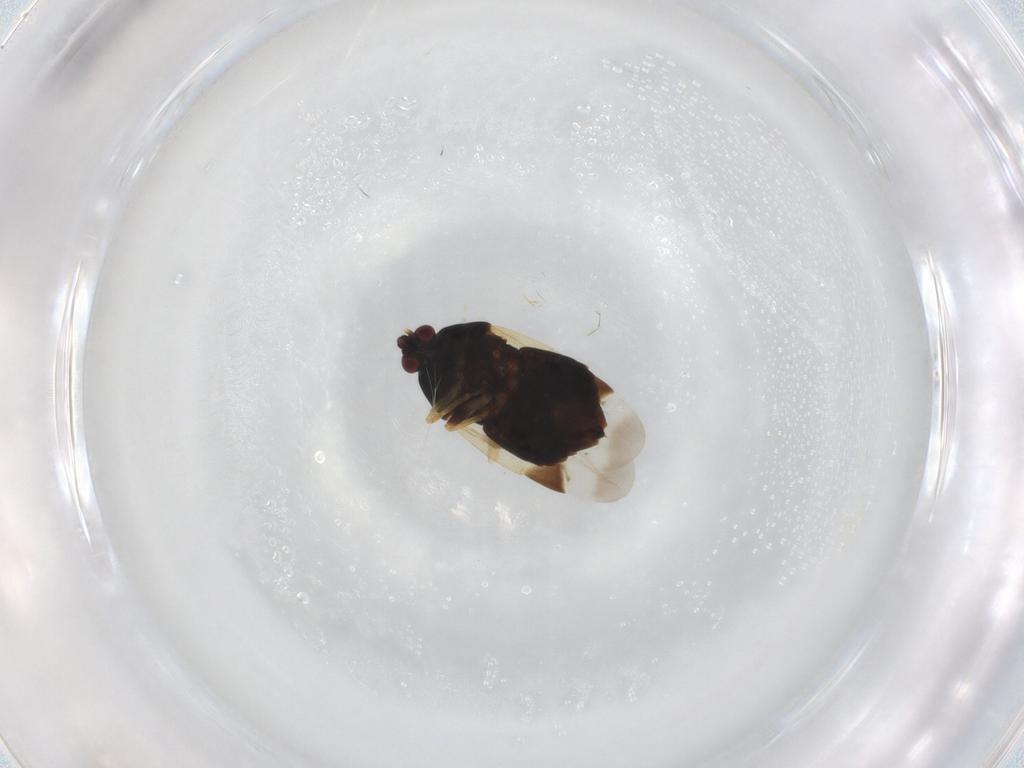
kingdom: Animalia
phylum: Arthropoda
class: Insecta
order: Hemiptera
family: Anthocoridae
